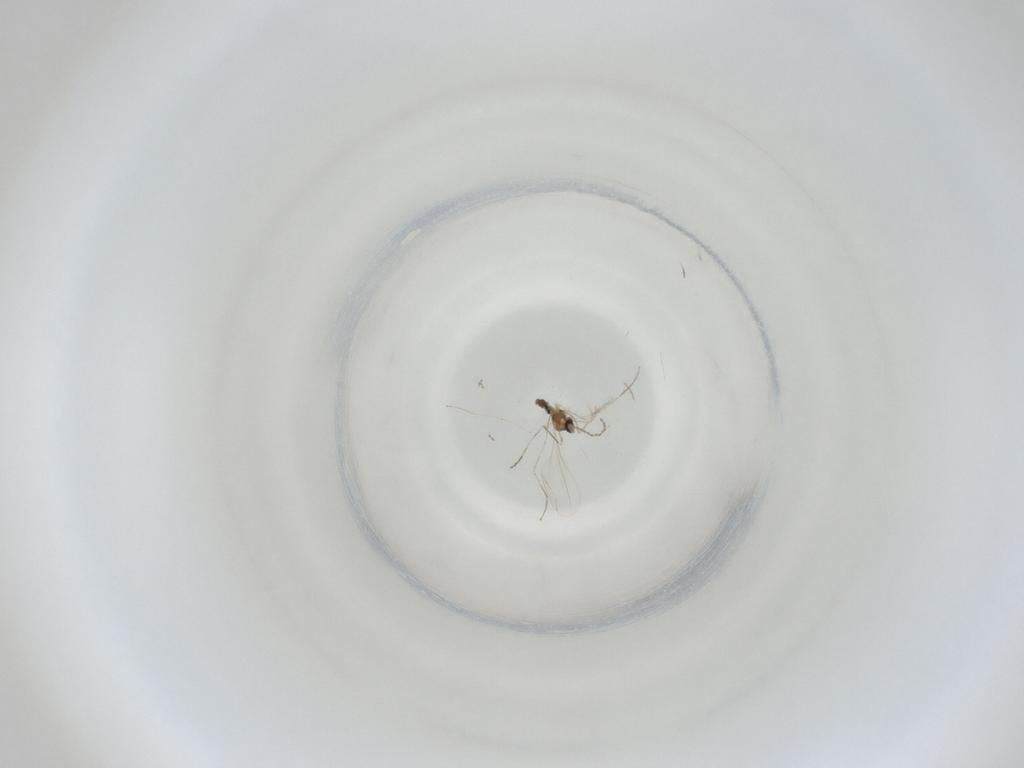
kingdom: Animalia
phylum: Arthropoda
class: Insecta
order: Diptera
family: Cecidomyiidae
